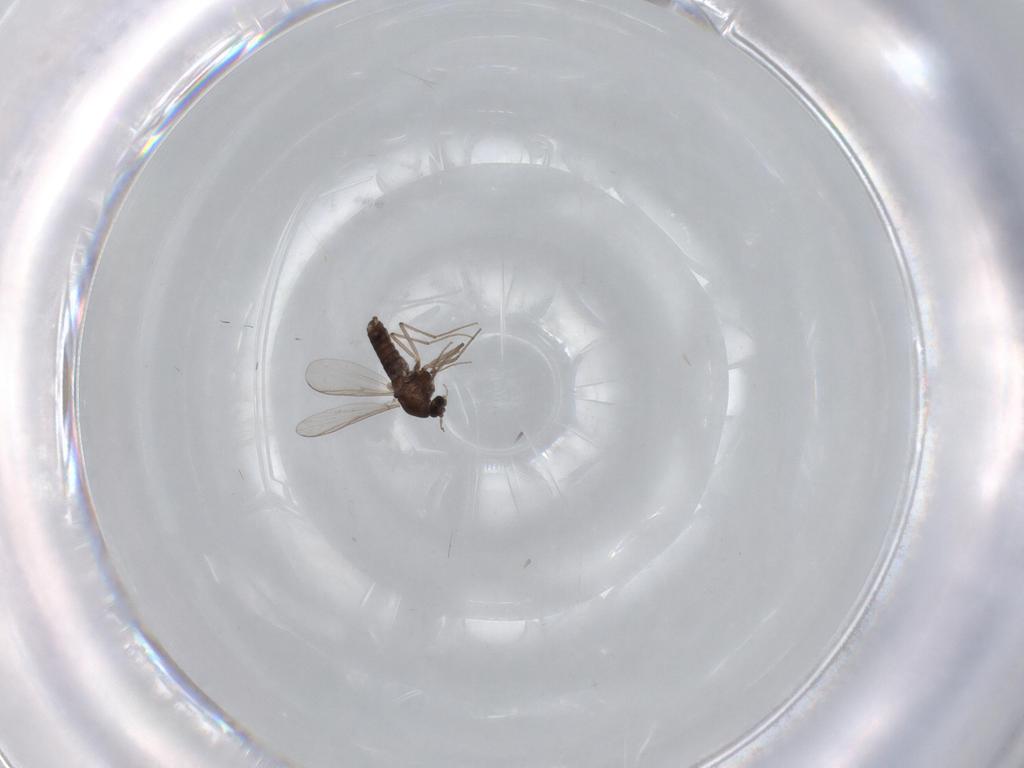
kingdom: Animalia
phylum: Arthropoda
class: Insecta
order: Diptera
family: Chironomidae
